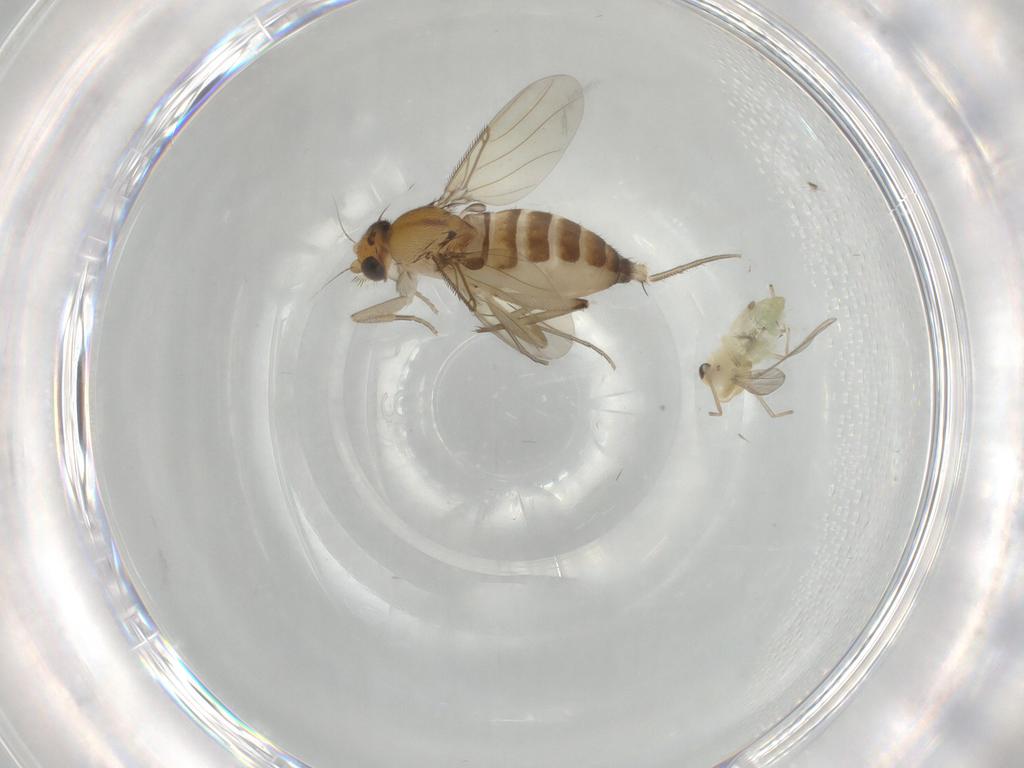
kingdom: Animalia
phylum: Arthropoda
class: Insecta
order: Diptera
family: Phoridae
